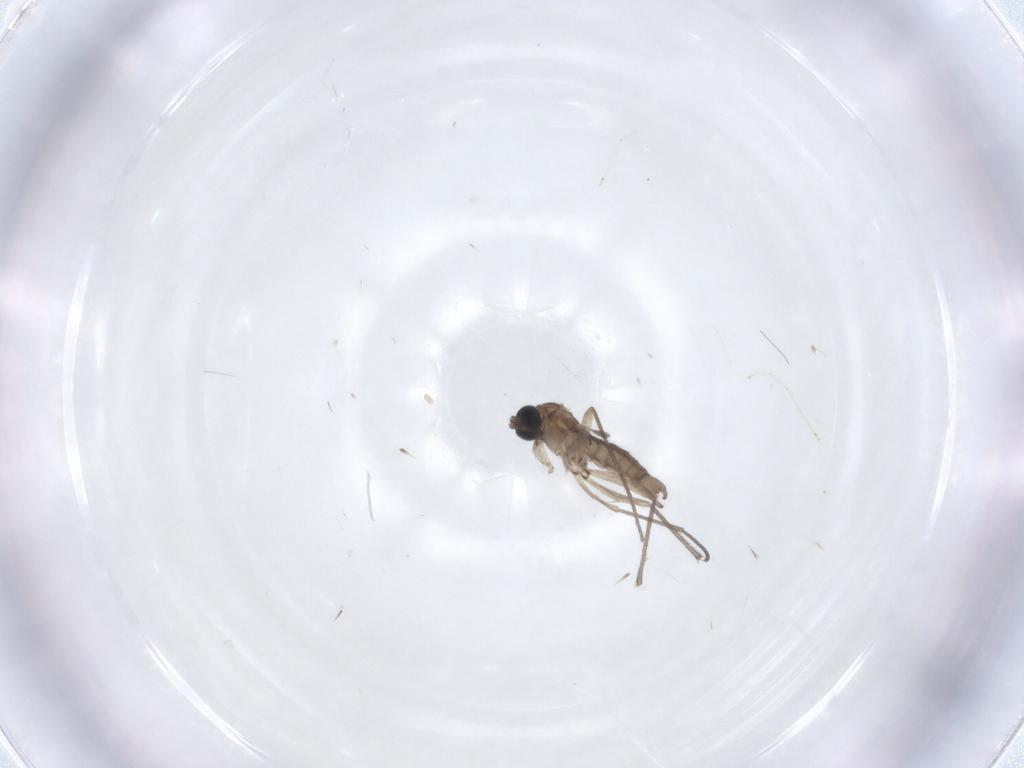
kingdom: Animalia
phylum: Arthropoda
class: Insecta
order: Diptera
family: Sciaridae
